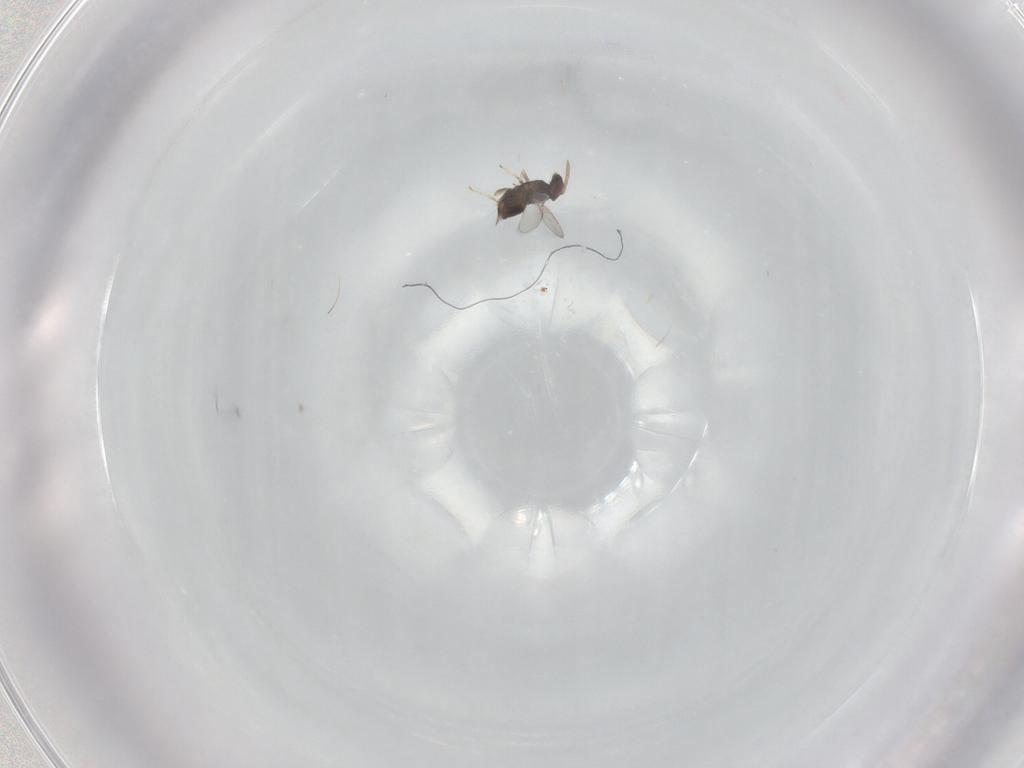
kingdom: Animalia
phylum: Arthropoda
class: Insecta
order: Hymenoptera
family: Aphelinidae
